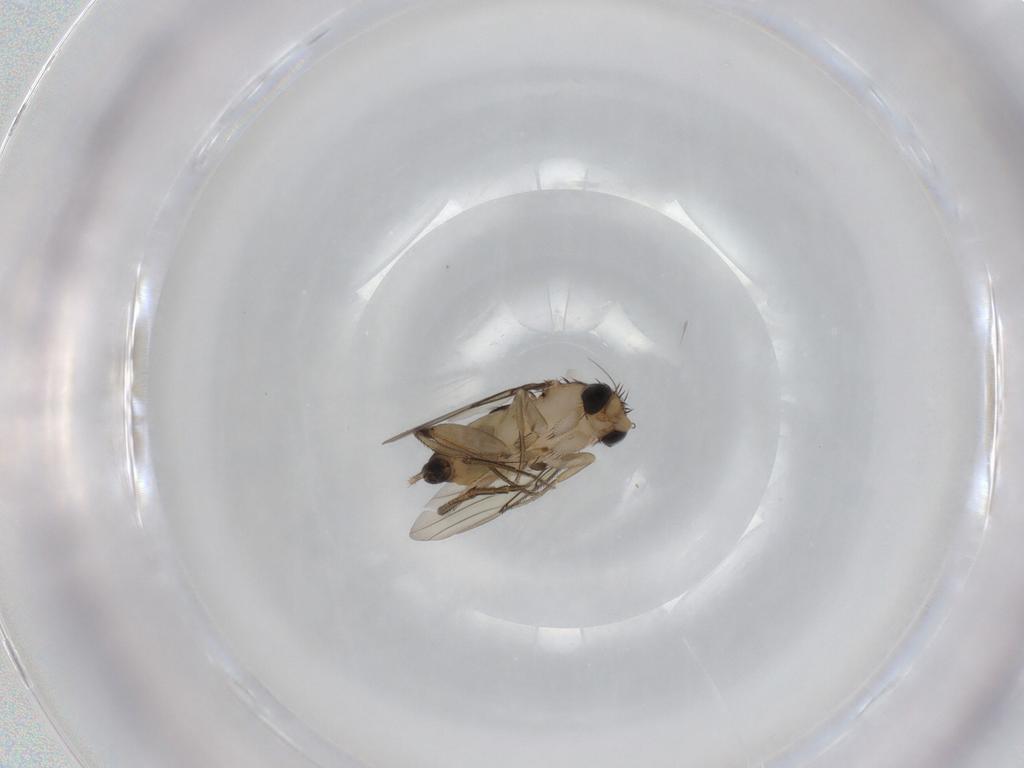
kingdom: Animalia
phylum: Arthropoda
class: Insecta
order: Diptera
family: Phoridae
